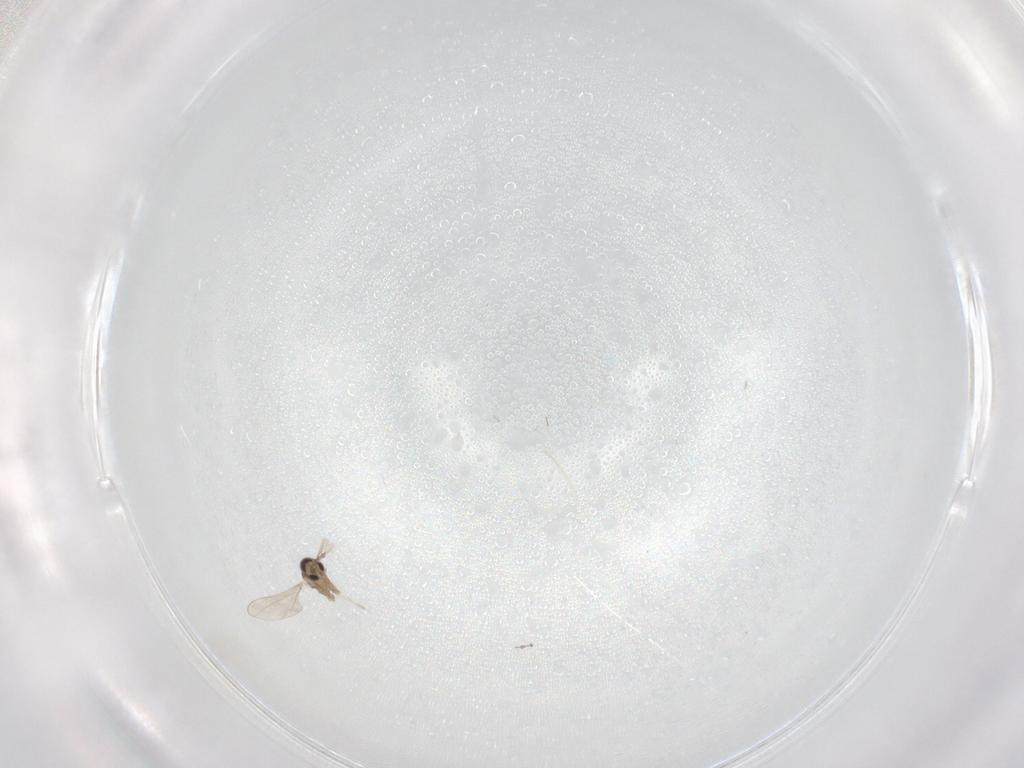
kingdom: Animalia
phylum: Arthropoda
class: Insecta
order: Diptera
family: Cecidomyiidae
